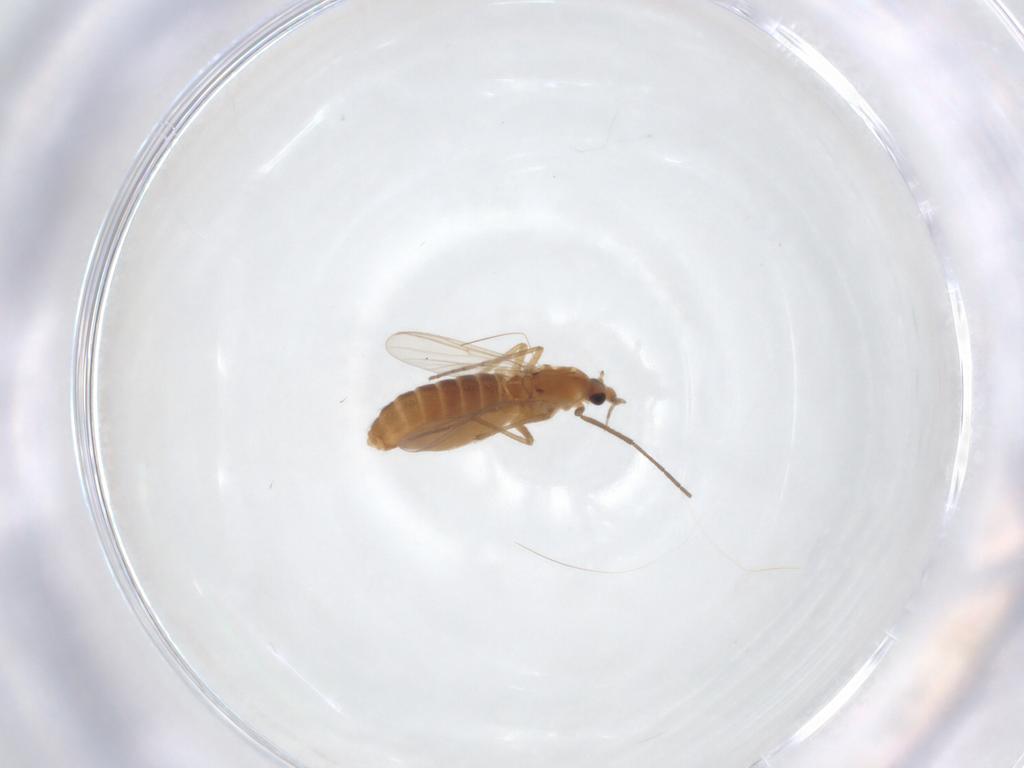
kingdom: Animalia
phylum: Arthropoda
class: Insecta
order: Diptera
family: Chironomidae
